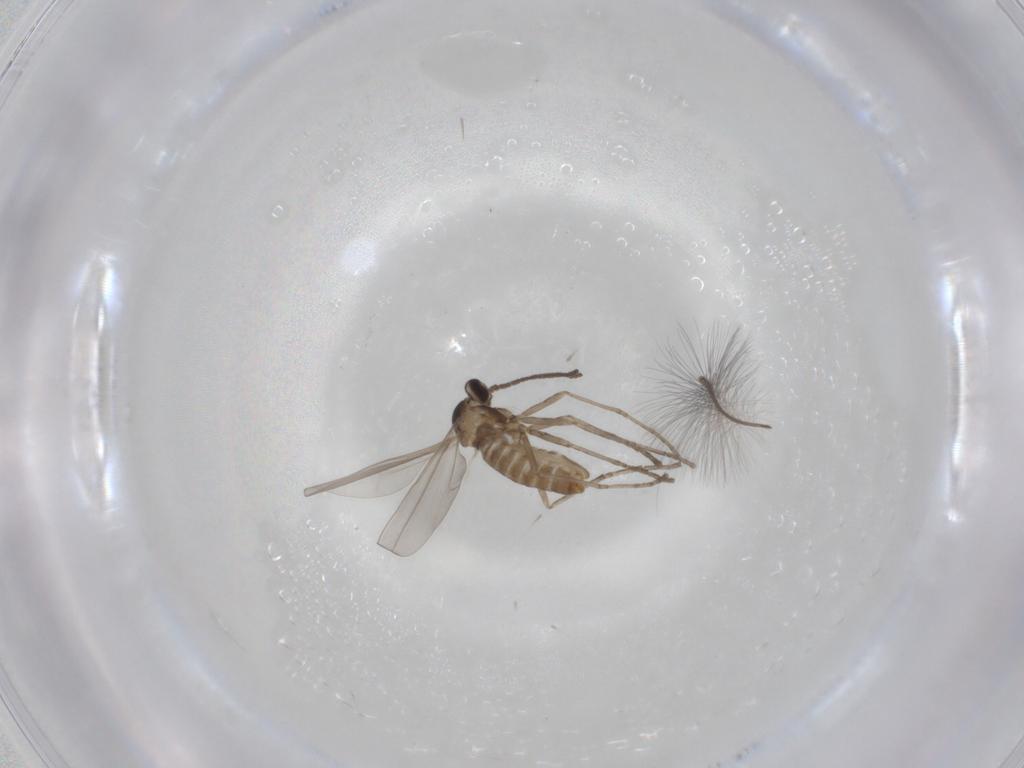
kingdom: Animalia
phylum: Arthropoda
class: Insecta
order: Diptera
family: Chironomidae
